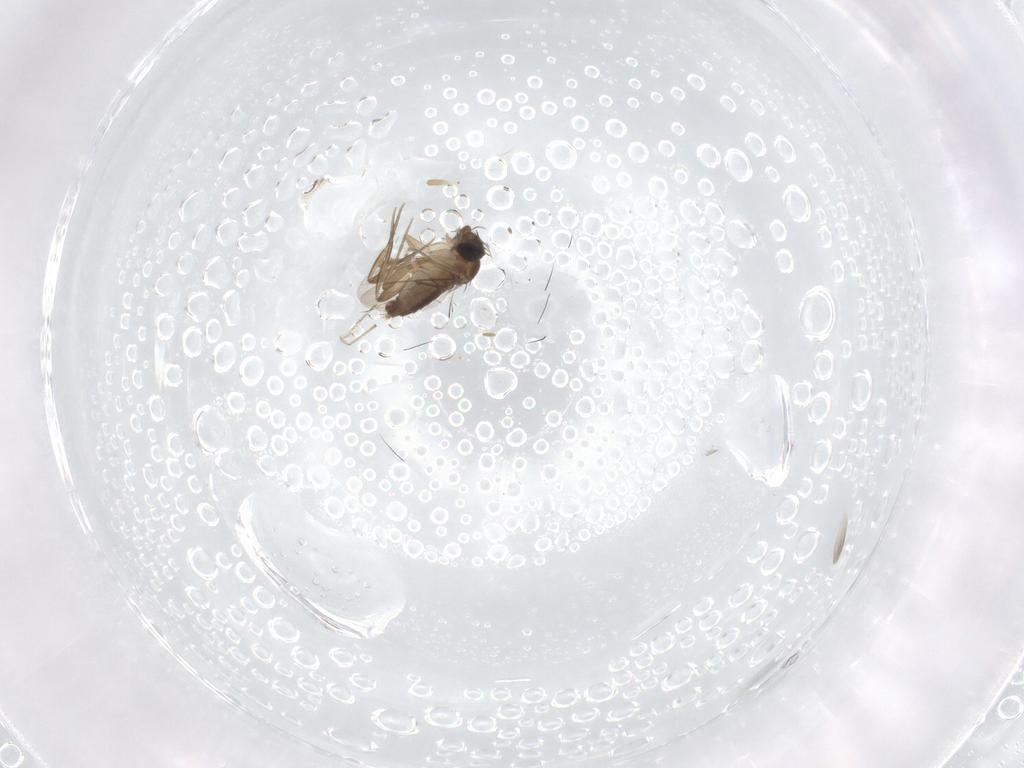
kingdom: Animalia
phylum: Arthropoda
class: Insecta
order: Diptera
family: Phoridae
